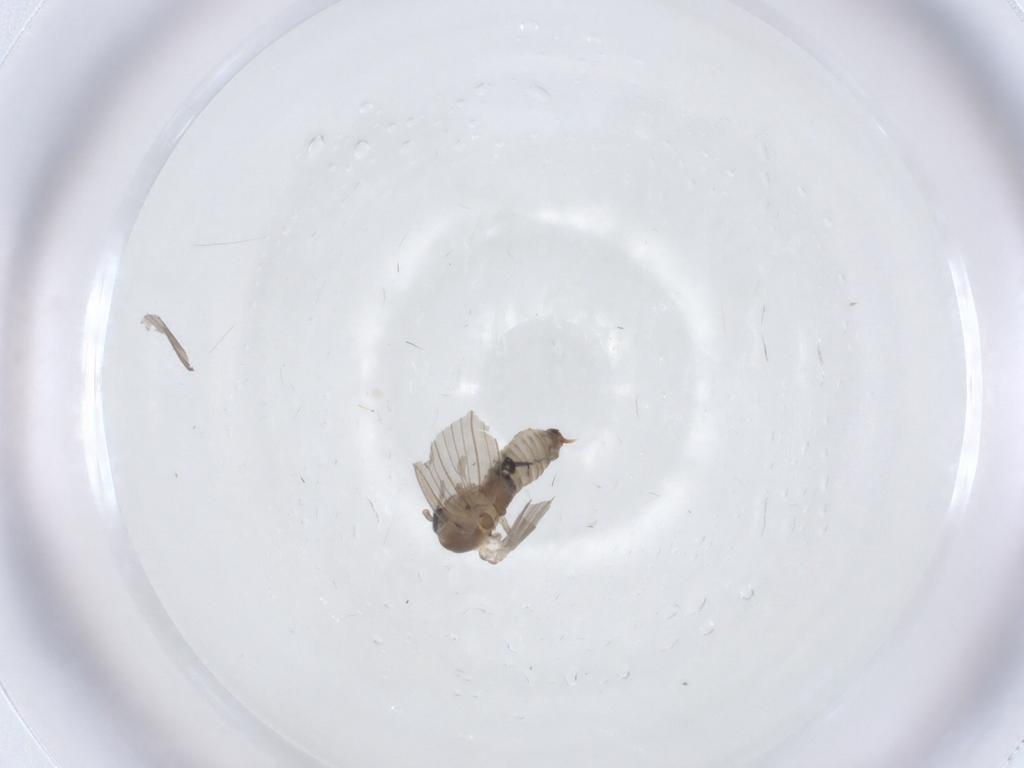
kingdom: Animalia
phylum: Arthropoda
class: Insecta
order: Diptera
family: Psychodidae
